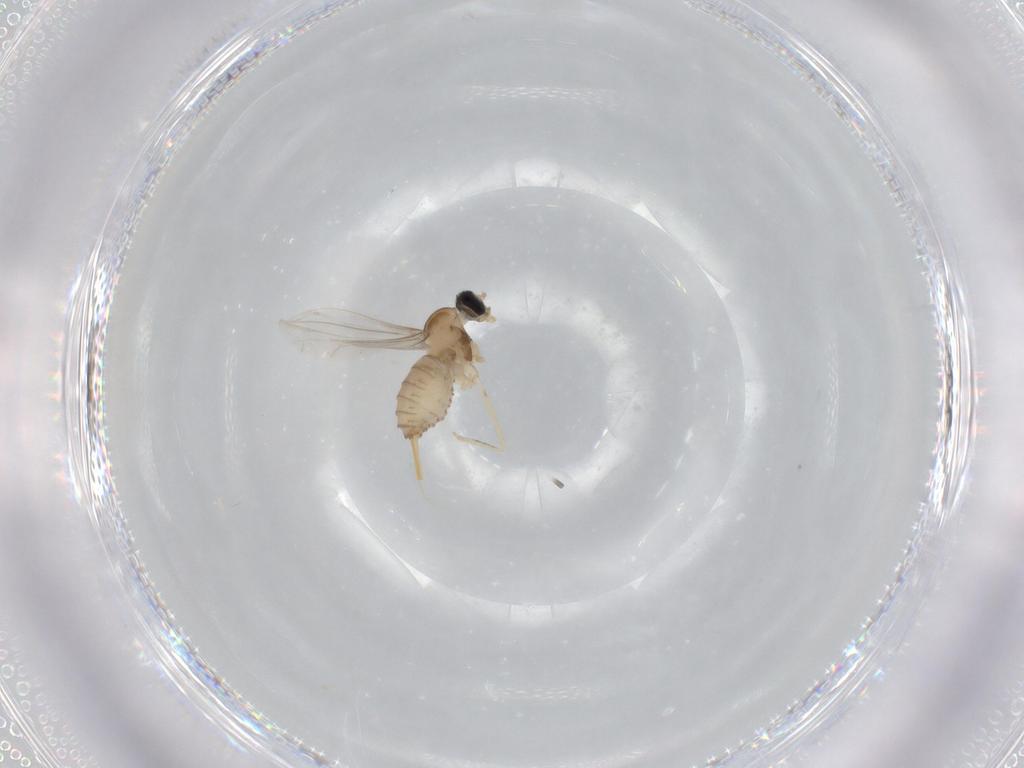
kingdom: Animalia
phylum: Arthropoda
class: Insecta
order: Diptera
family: Cecidomyiidae
